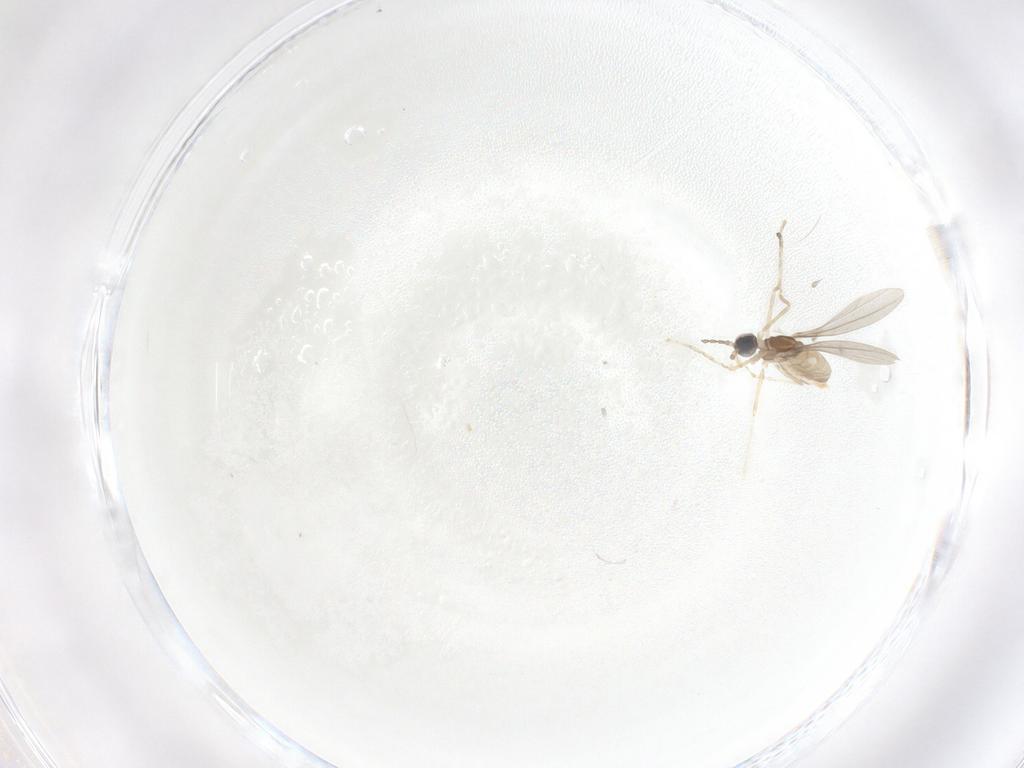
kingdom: Animalia
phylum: Arthropoda
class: Insecta
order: Diptera
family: Cecidomyiidae
